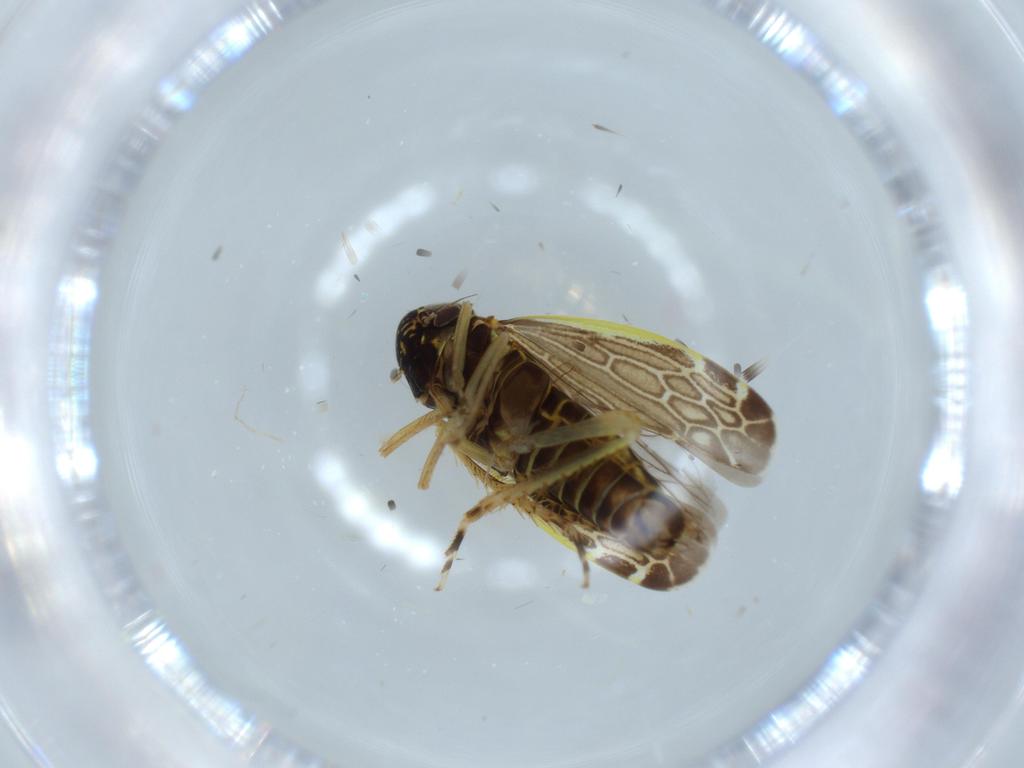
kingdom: Animalia
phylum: Arthropoda
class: Insecta
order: Hemiptera
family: Cicadellidae
